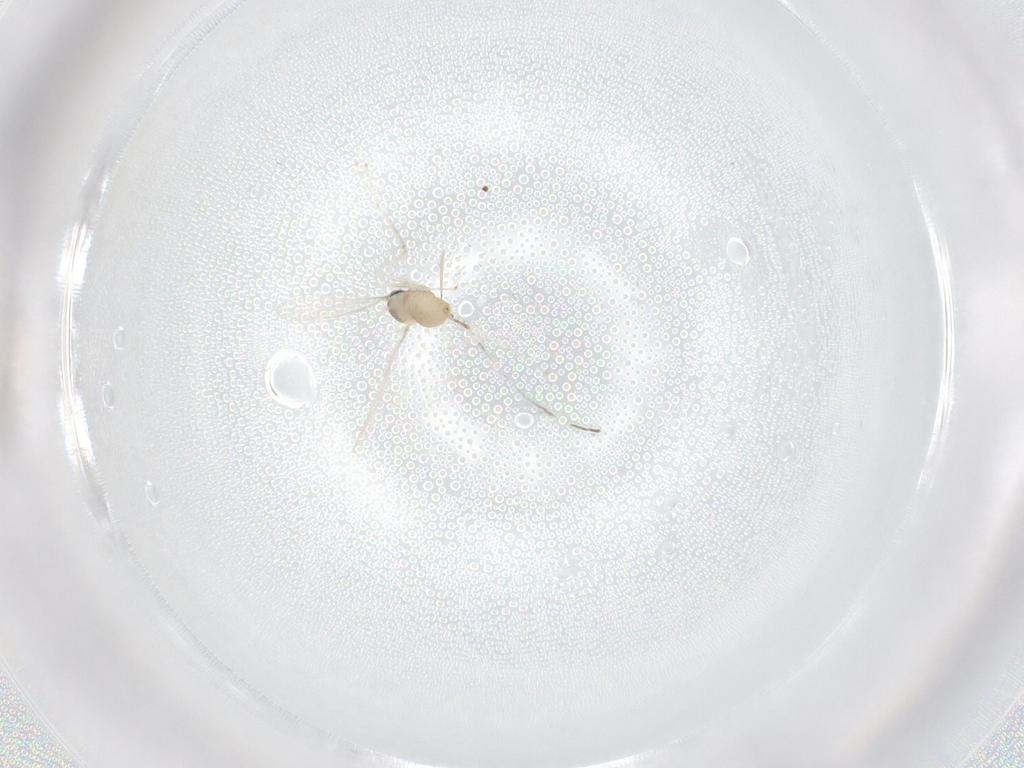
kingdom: Animalia
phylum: Arthropoda
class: Insecta
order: Diptera
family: Cecidomyiidae
